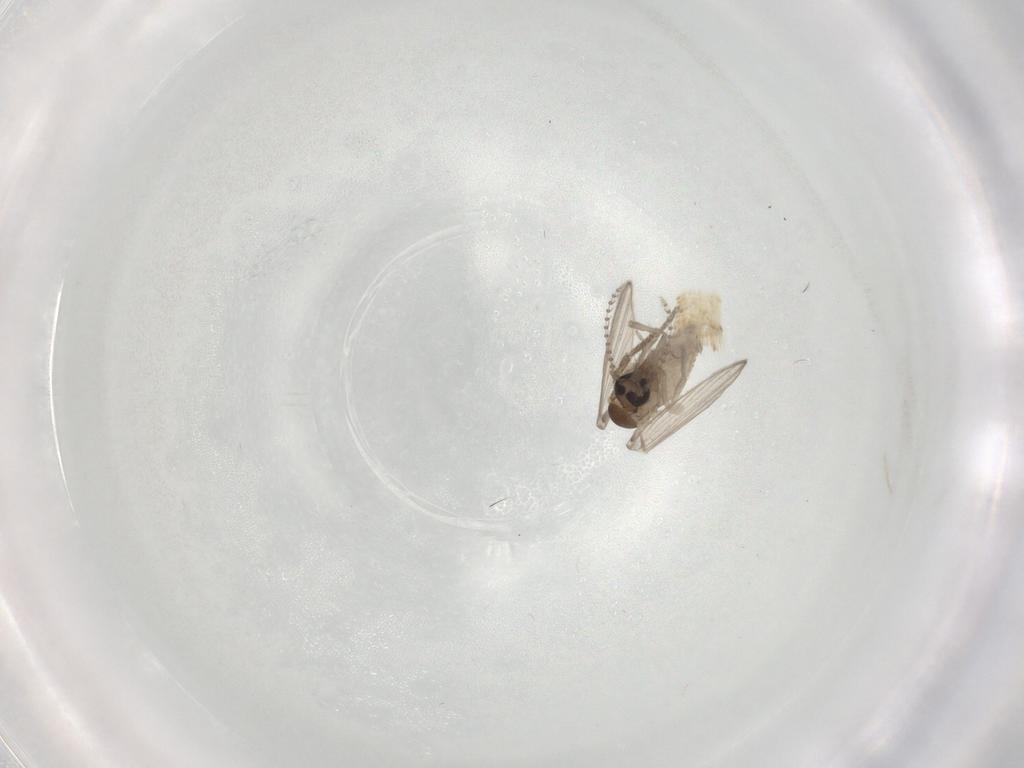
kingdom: Animalia
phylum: Arthropoda
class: Insecta
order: Diptera
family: Psychodidae
